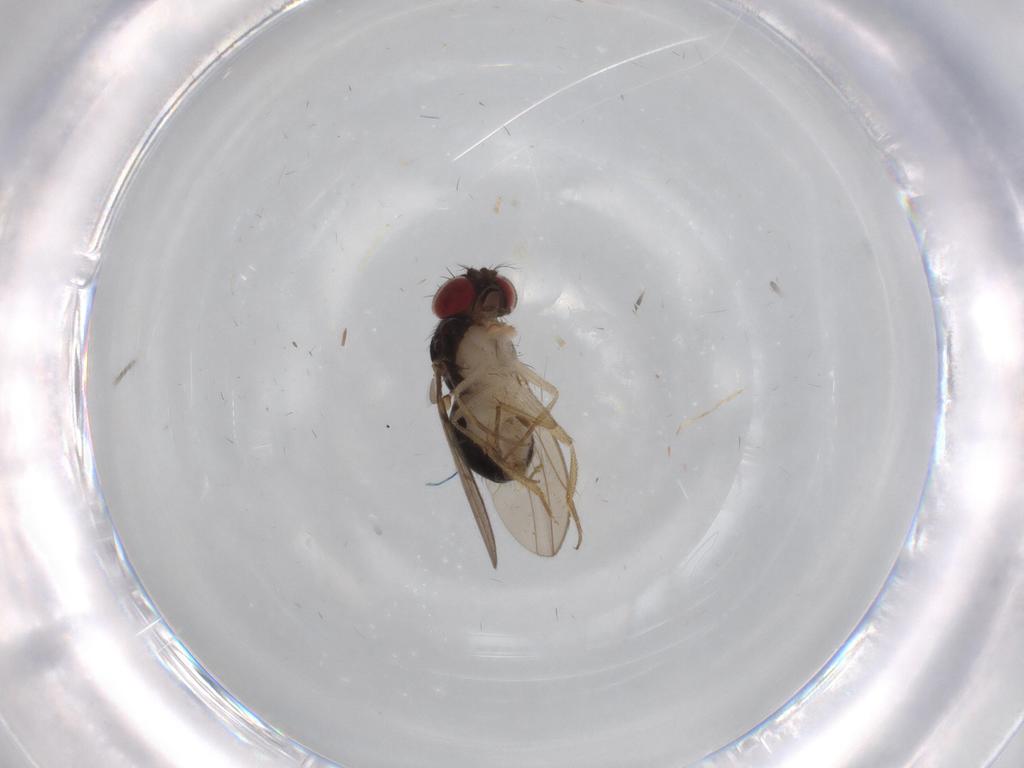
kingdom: Animalia
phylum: Arthropoda
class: Insecta
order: Diptera
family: Drosophilidae
